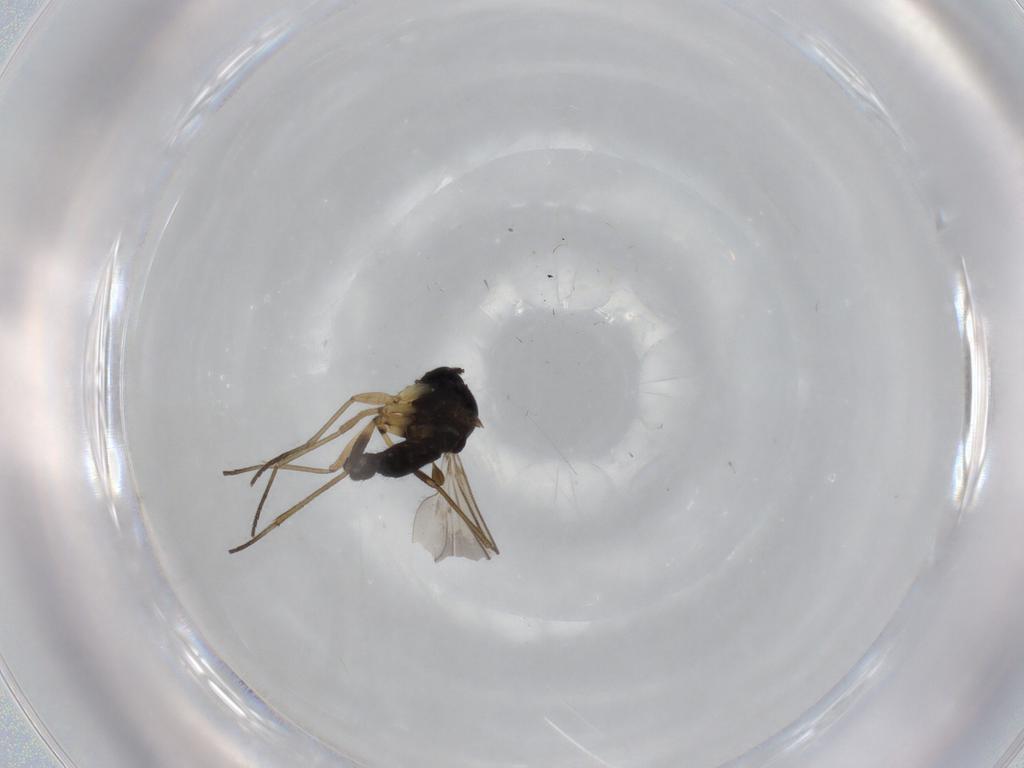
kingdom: Animalia
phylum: Arthropoda
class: Insecta
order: Diptera
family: Sciaridae
